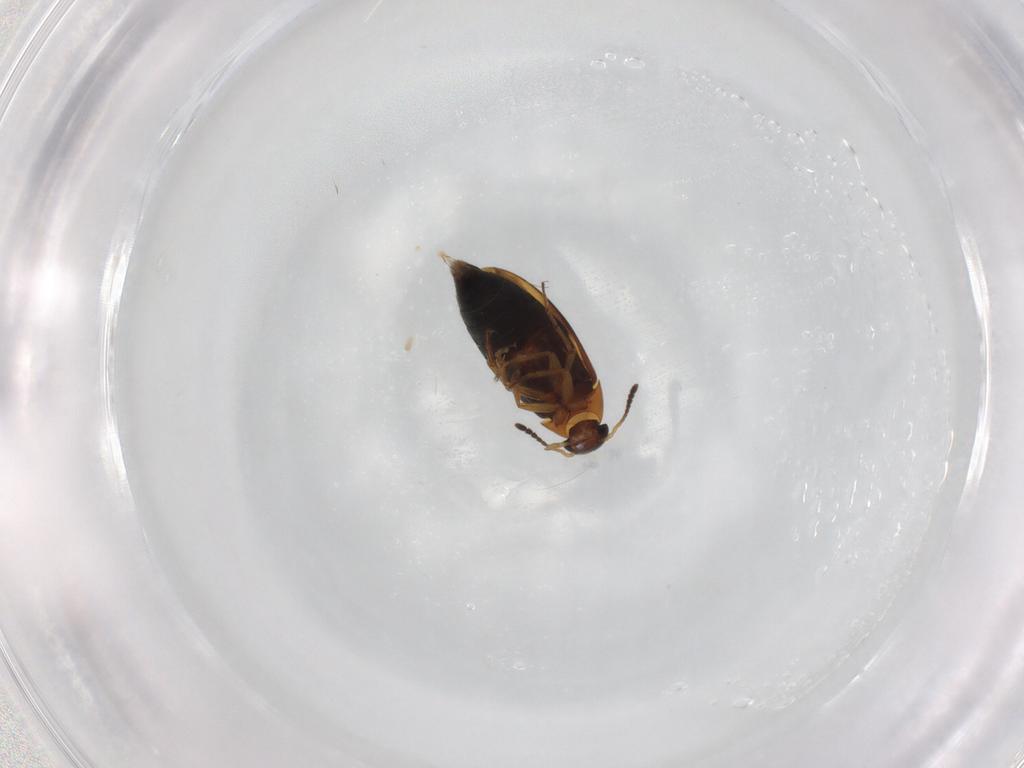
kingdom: Animalia
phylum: Arthropoda
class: Insecta
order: Coleoptera
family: Scraptiidae
